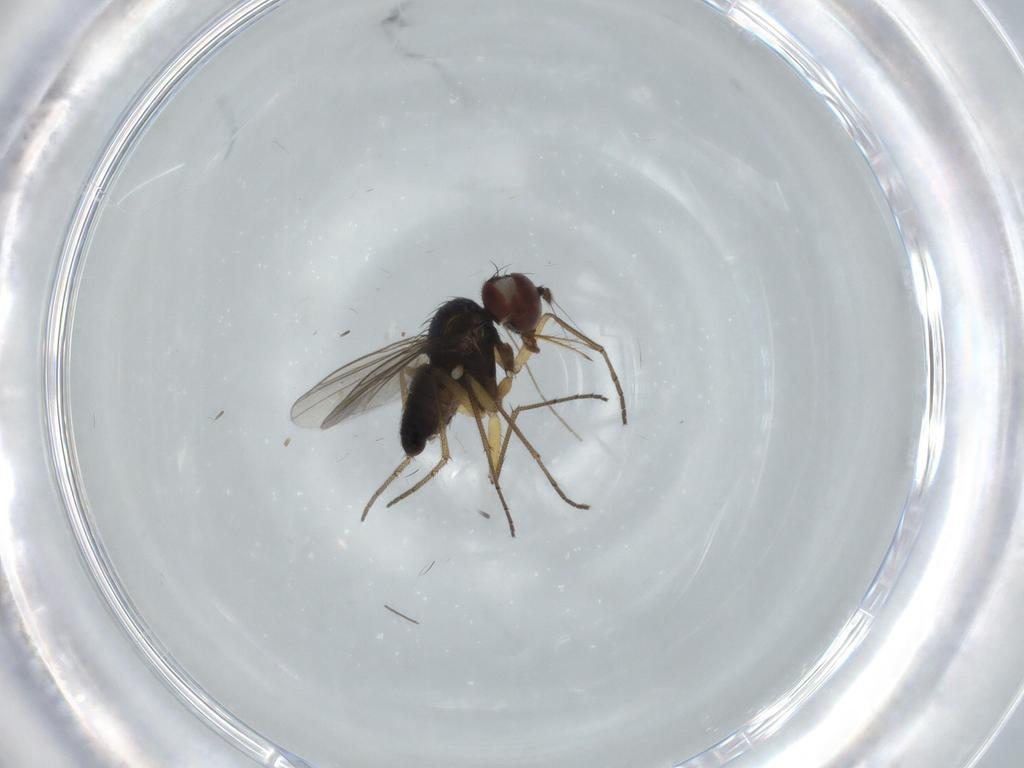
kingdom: Animalia
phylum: Arthropoda
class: Insecta
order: Diptera
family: Dolichopodidae
